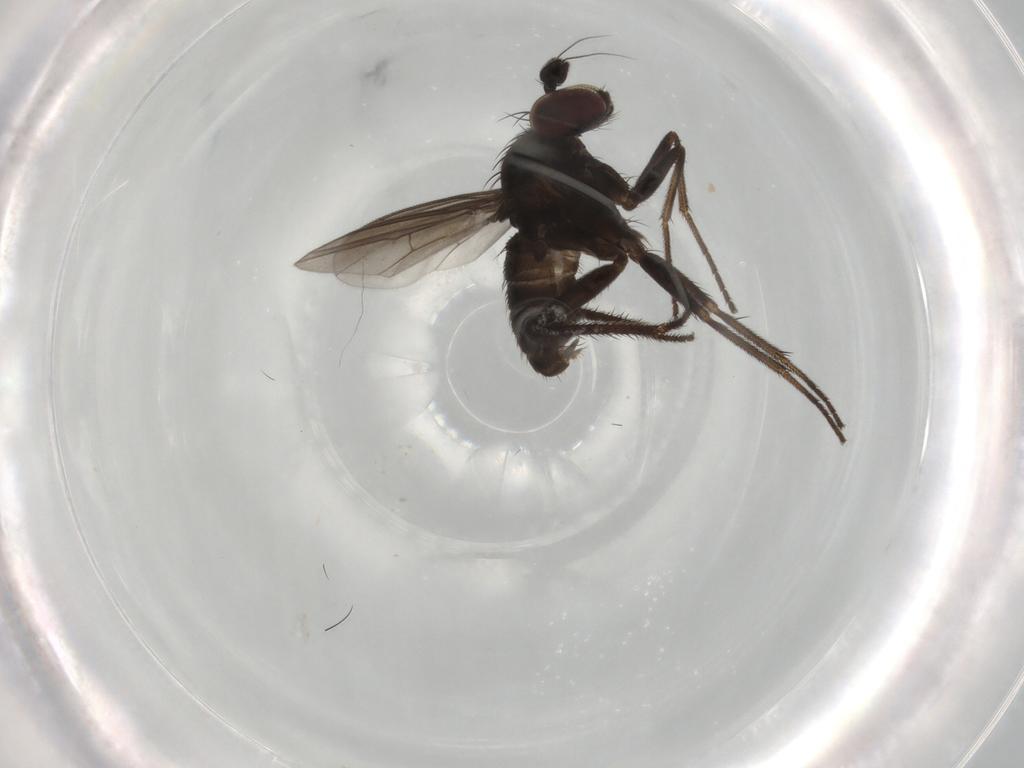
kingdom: Animalia
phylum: Arthropoda
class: Insecta
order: Diptera
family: Dolichopodidae
